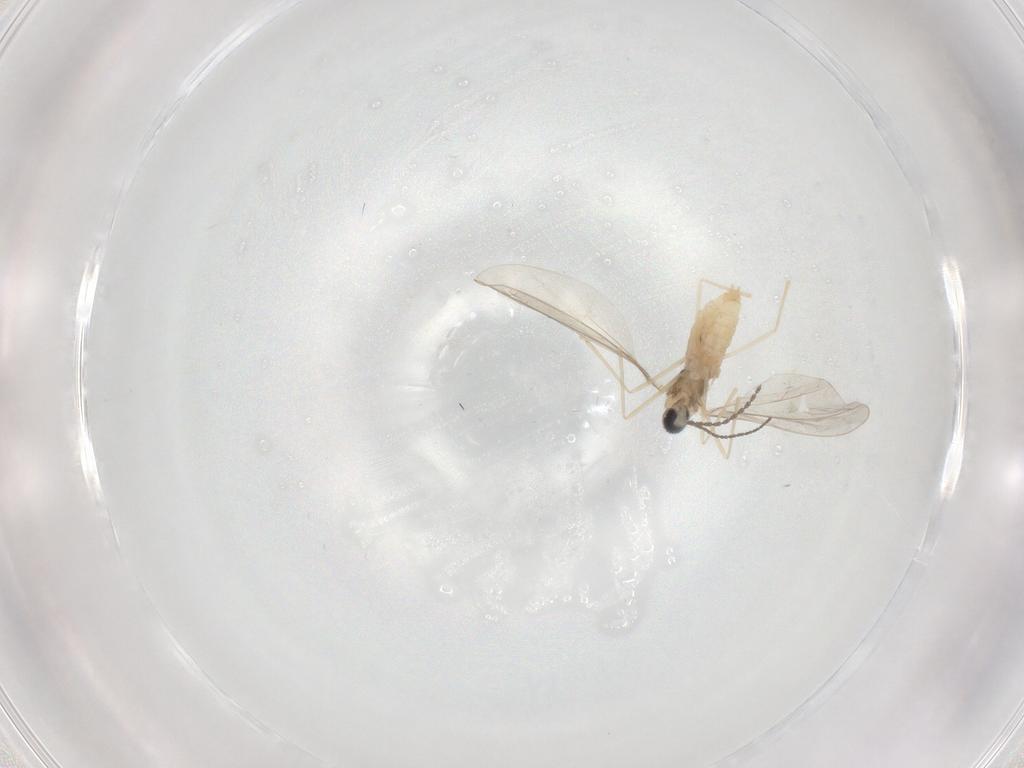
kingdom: Animalia
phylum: Arthropoda
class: Insecta
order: Diptera
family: Cecidomyiidae
